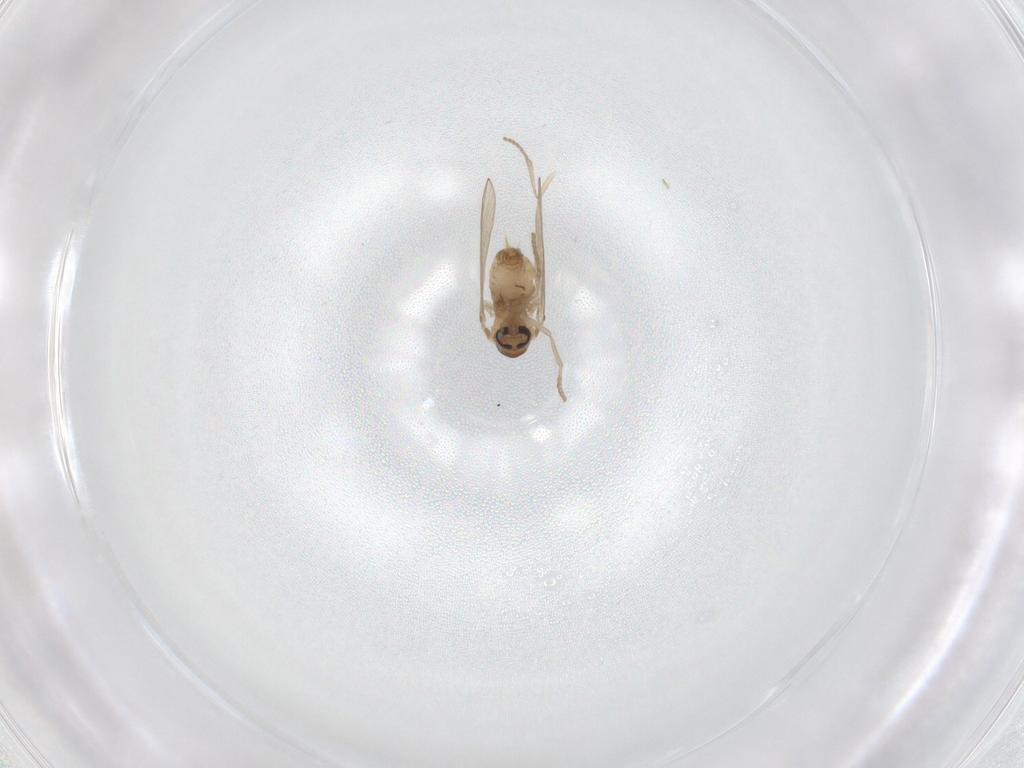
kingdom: Animalia
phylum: Arthropoda
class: Insecta
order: Diptera
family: Psychodidae
